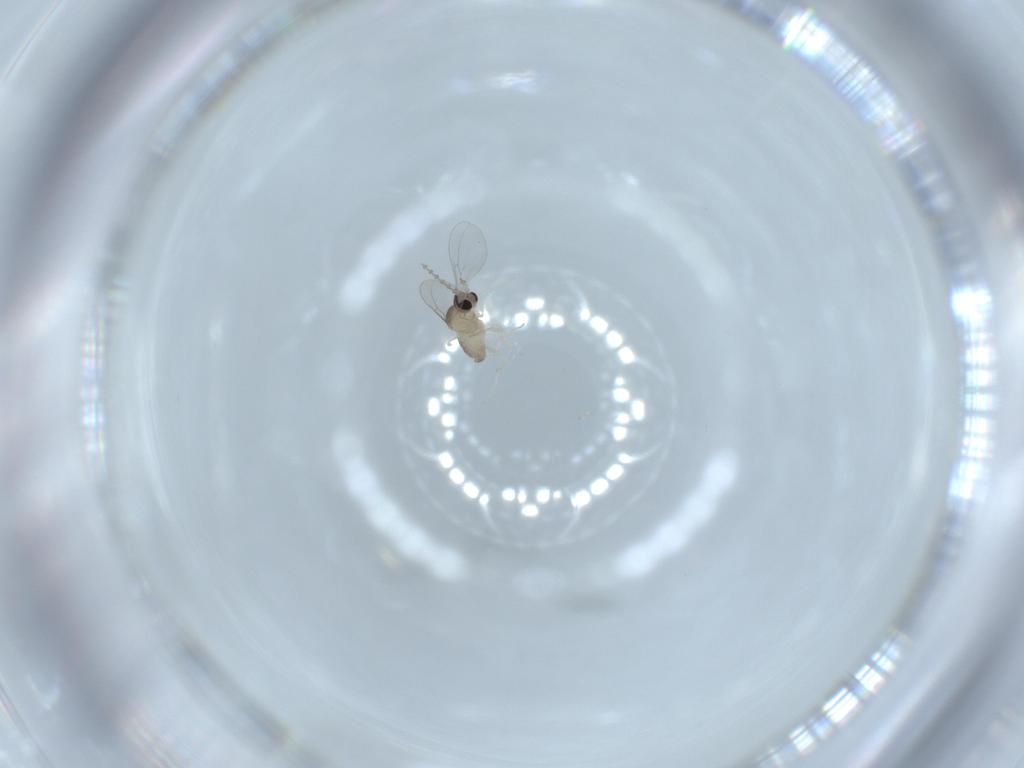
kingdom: Animalia
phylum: Arthropoda
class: Insecta
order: Diptera
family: Cecidomyiidae
